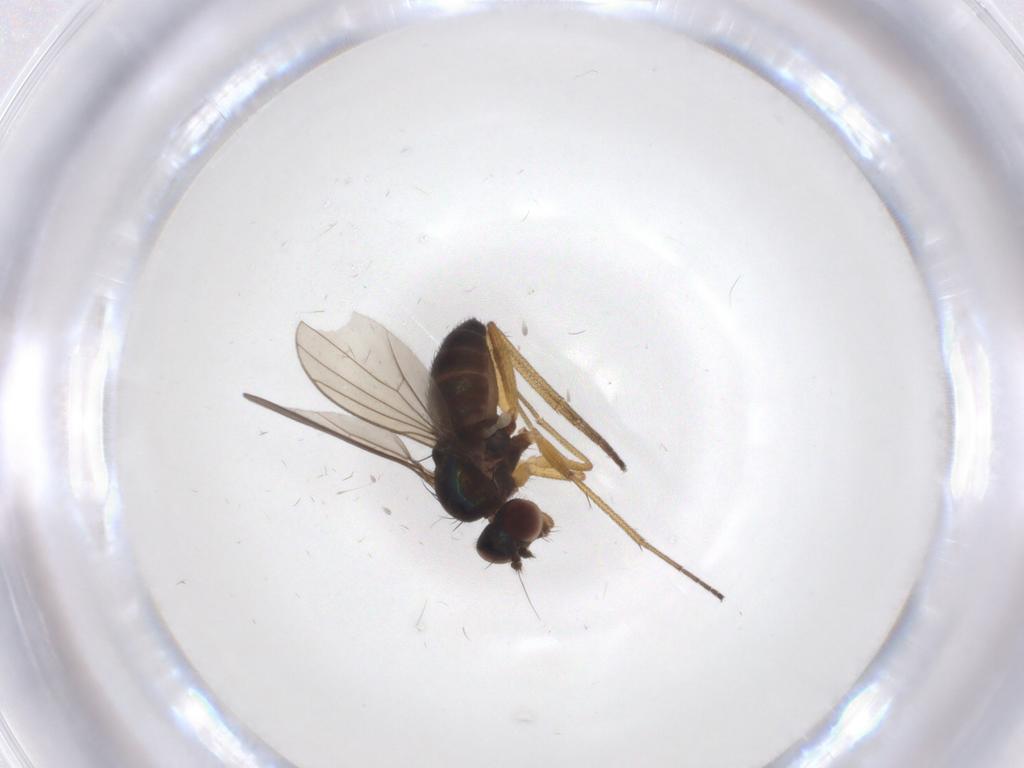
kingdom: Animalia
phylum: Arthropoda
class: Insecta
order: Diptera
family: Dolichopodidae
